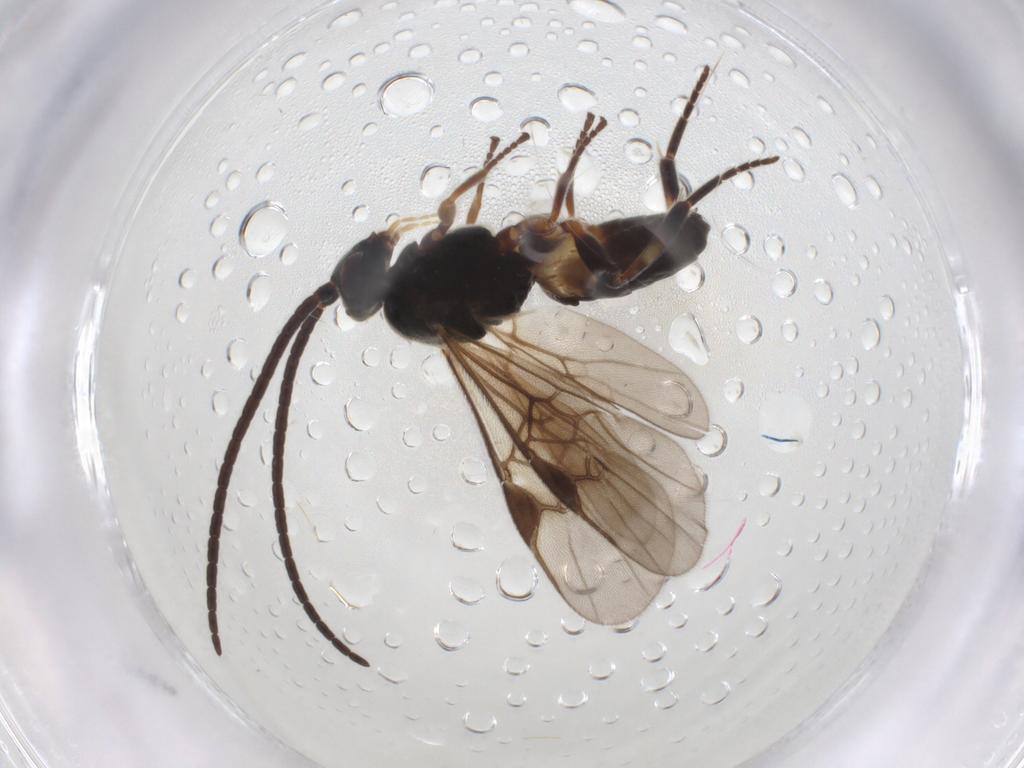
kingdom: Animalia
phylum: Arthropoda
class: Insecta
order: Hymenoptera
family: Braconidae
